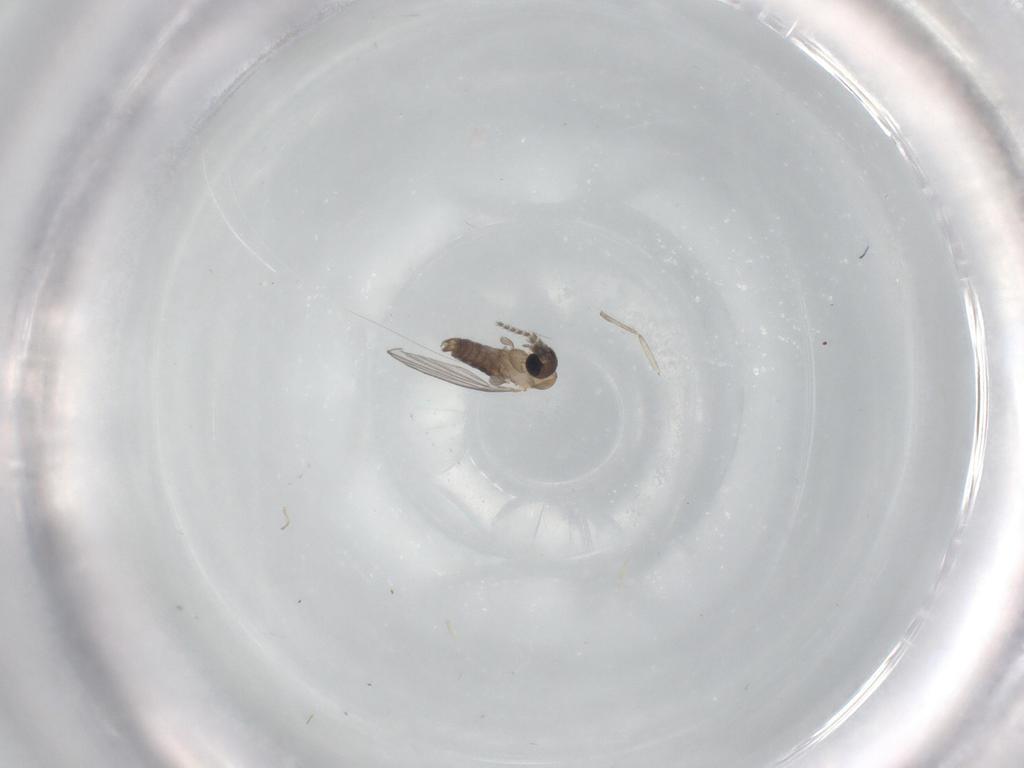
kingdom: Animalia
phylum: Arthropoda
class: Insecta
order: Diptera
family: Psychodidae
